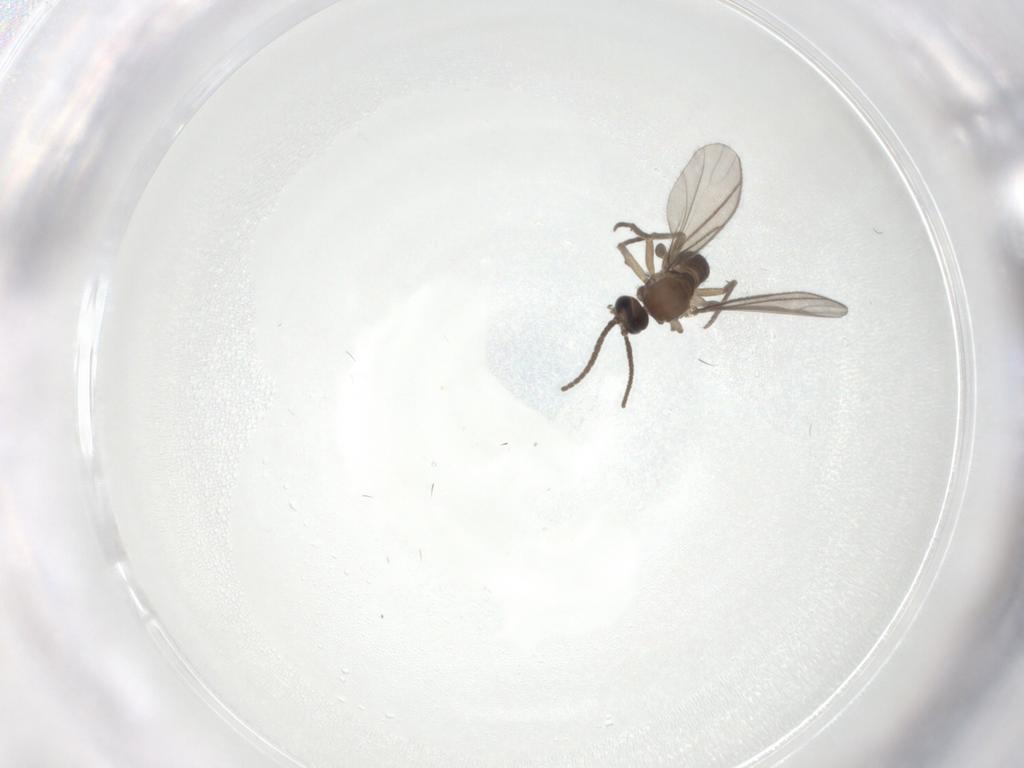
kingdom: Animalia
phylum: Arthropoda
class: Insecta
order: Diptera
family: Sciaridae
